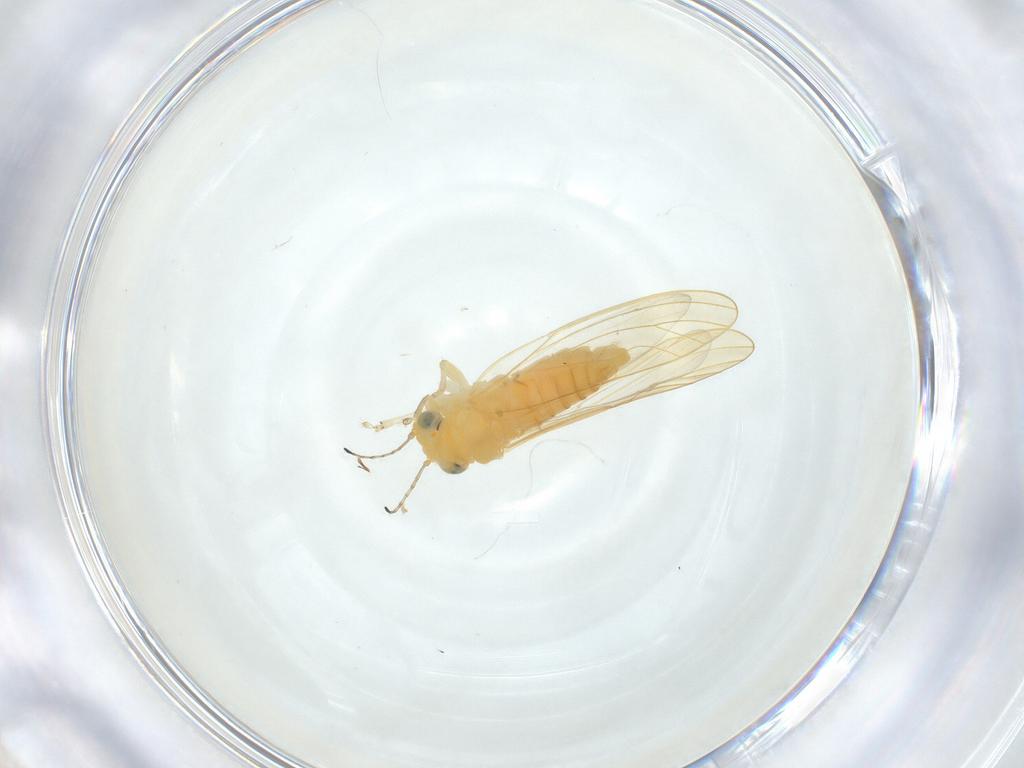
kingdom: Animalia
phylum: Arthropoda
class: Insecta
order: Hemiptera
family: Aphalaridae
